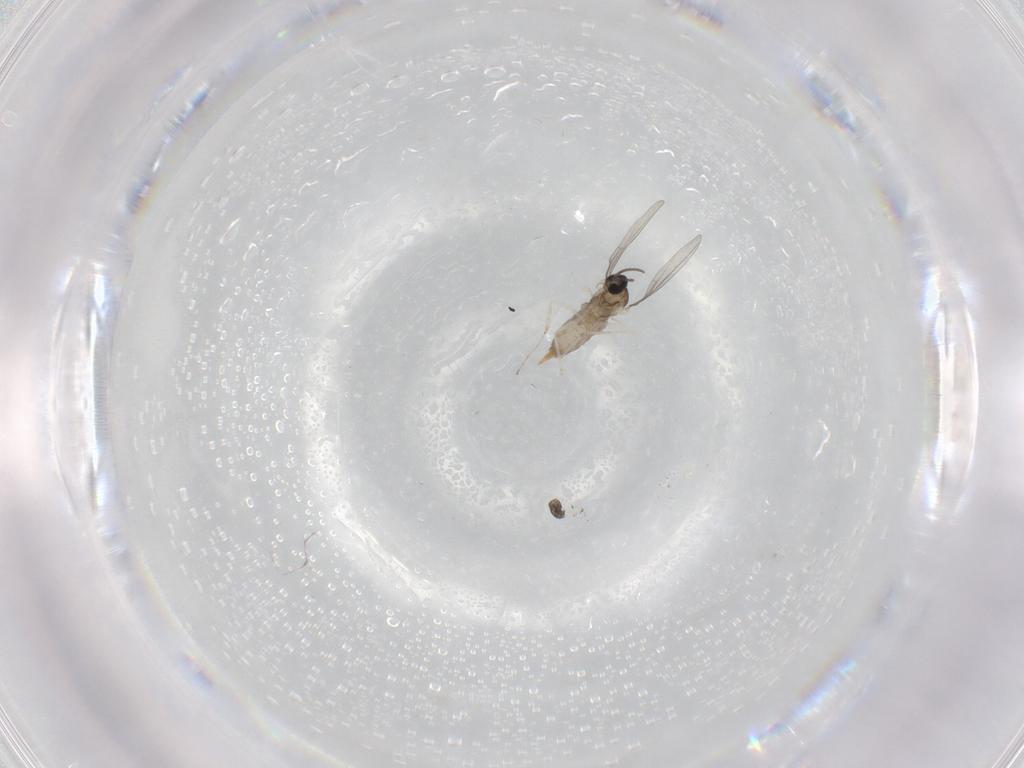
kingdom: Animalia
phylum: Arthropoda
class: Insecta
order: Diptera
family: Cecidomyiidae
